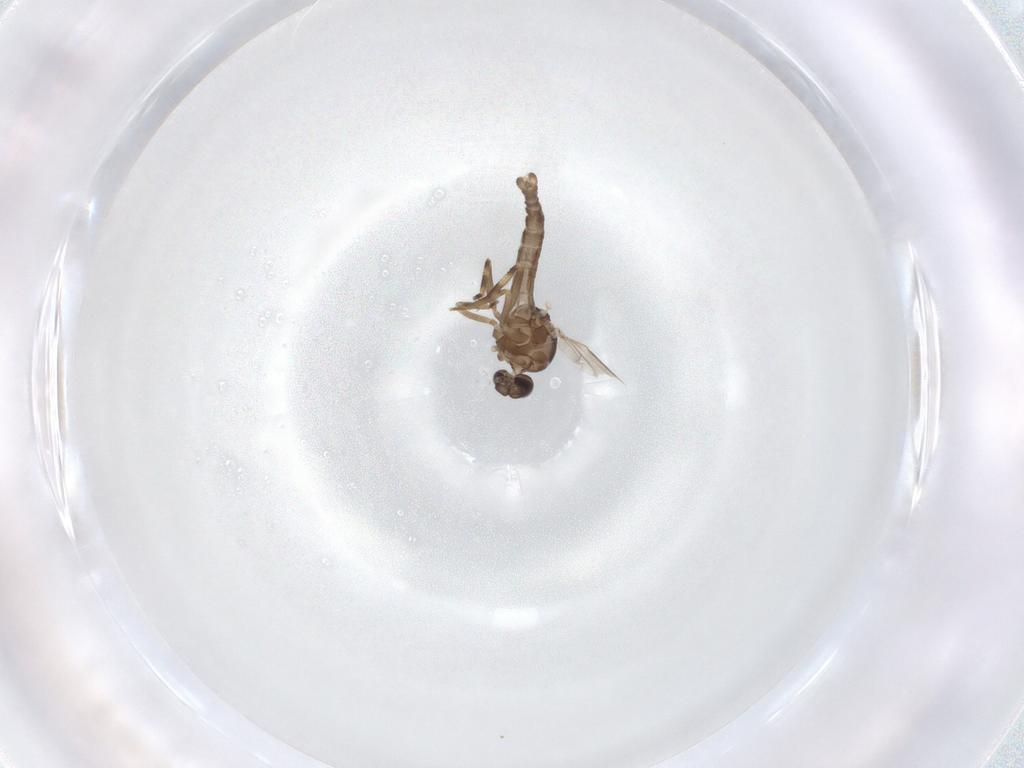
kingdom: Animalia
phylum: Arthropoda
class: Insecta
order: Diptera
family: Ceratopogonidae
